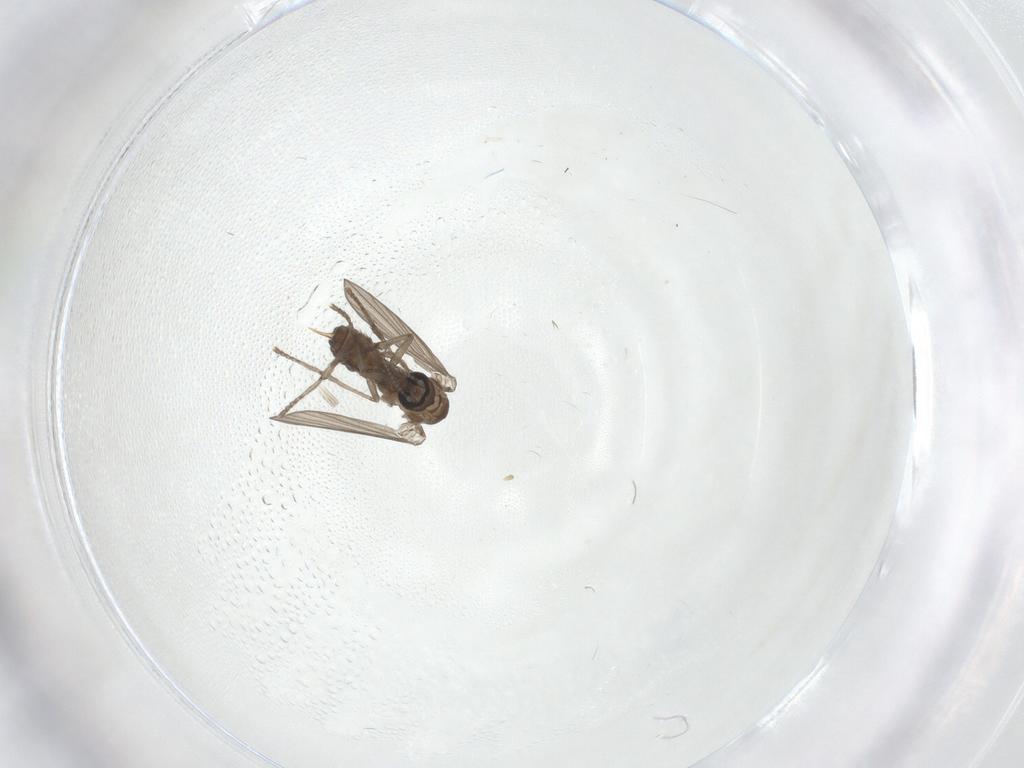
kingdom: Animalia
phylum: Arthropoda
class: Insecta
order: Diptera
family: Psychodidae
